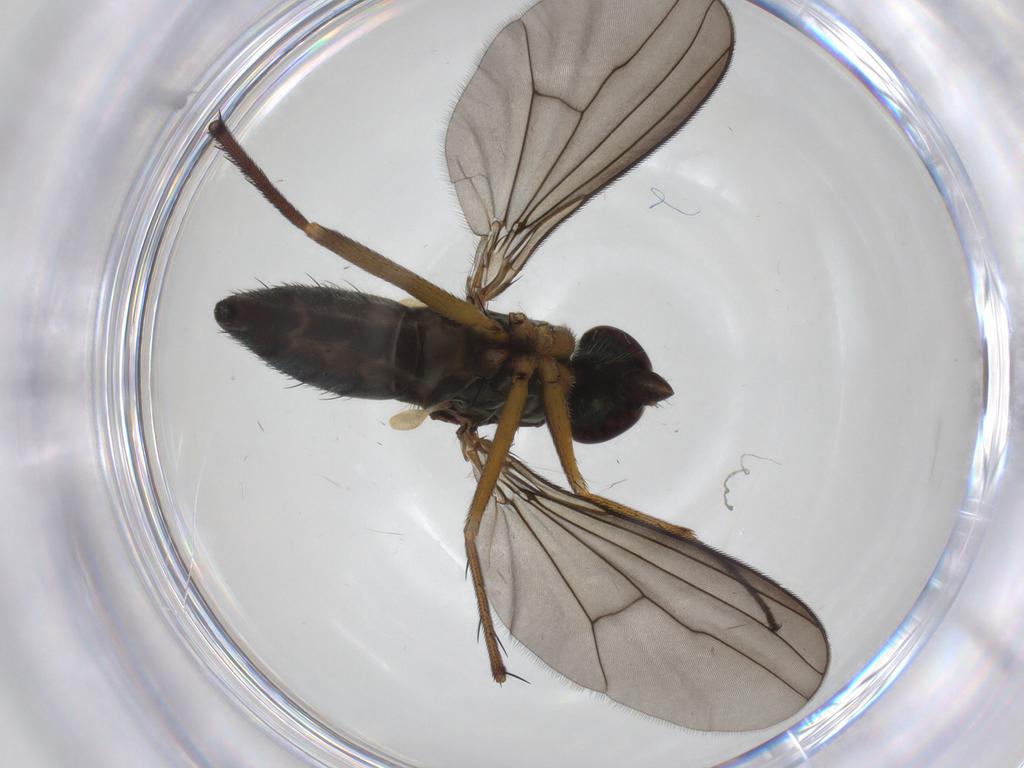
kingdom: Animalia
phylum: Arthropoda
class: Insecta
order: Diptera
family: Dolichopodidae
